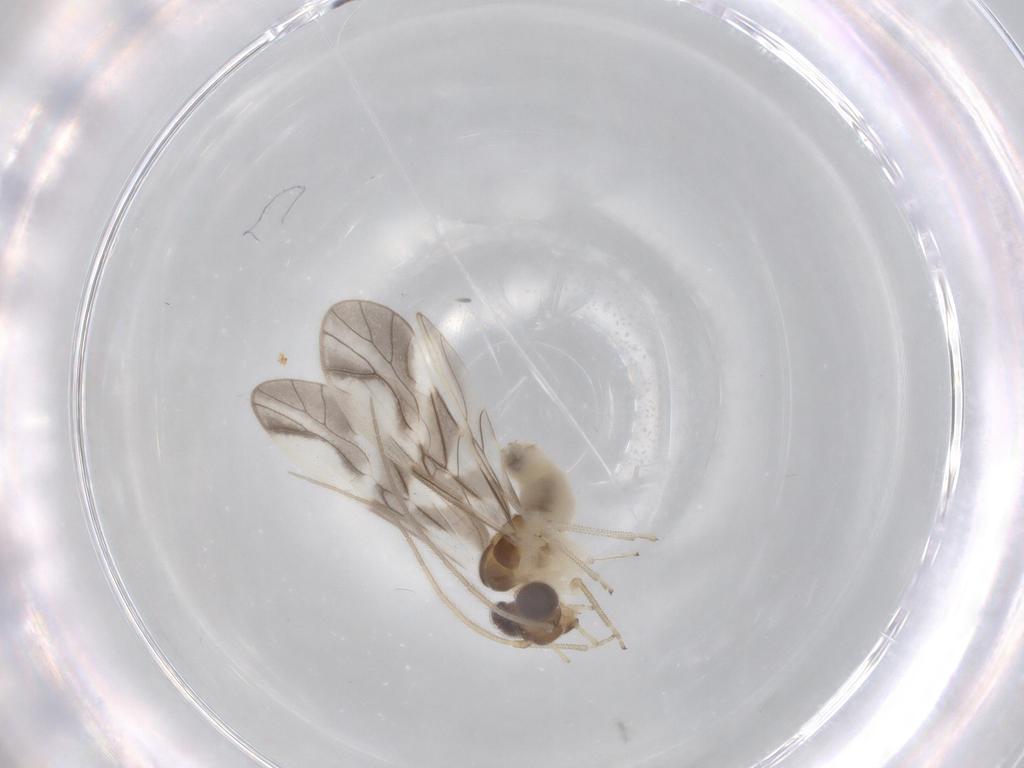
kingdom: Animalia
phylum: Arthropoda
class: Insecta
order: Psocodea
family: Caeciliusidae
